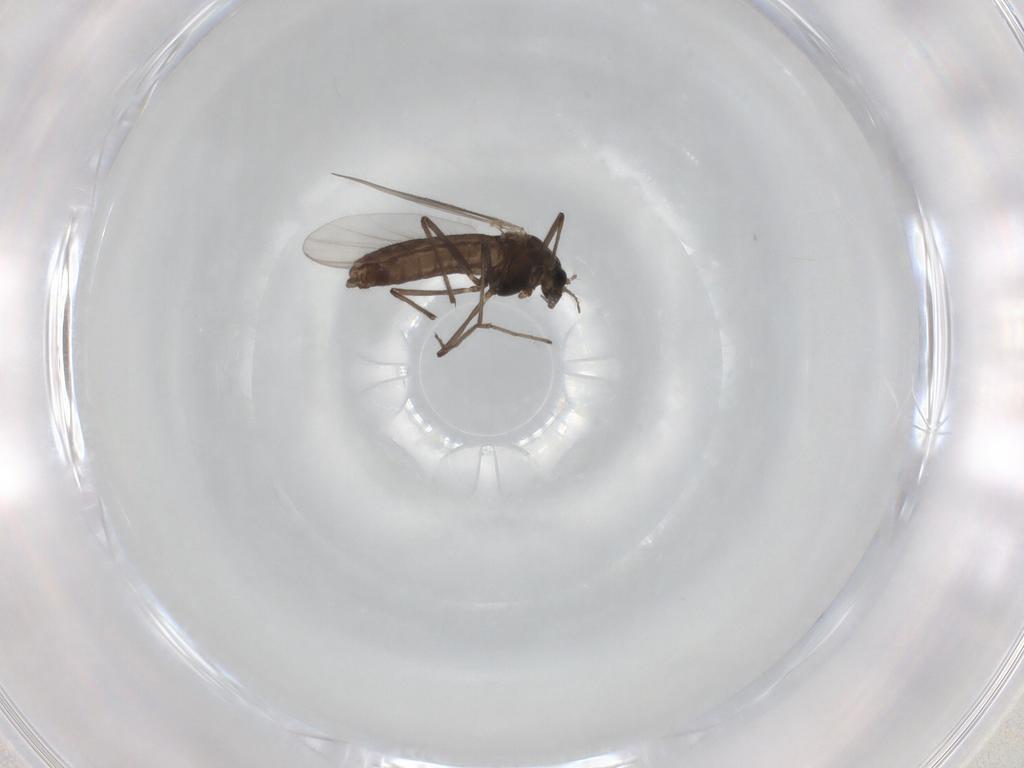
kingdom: Animalia
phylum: Arthropoda
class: Insecta
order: Diptera
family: Chironomidae
